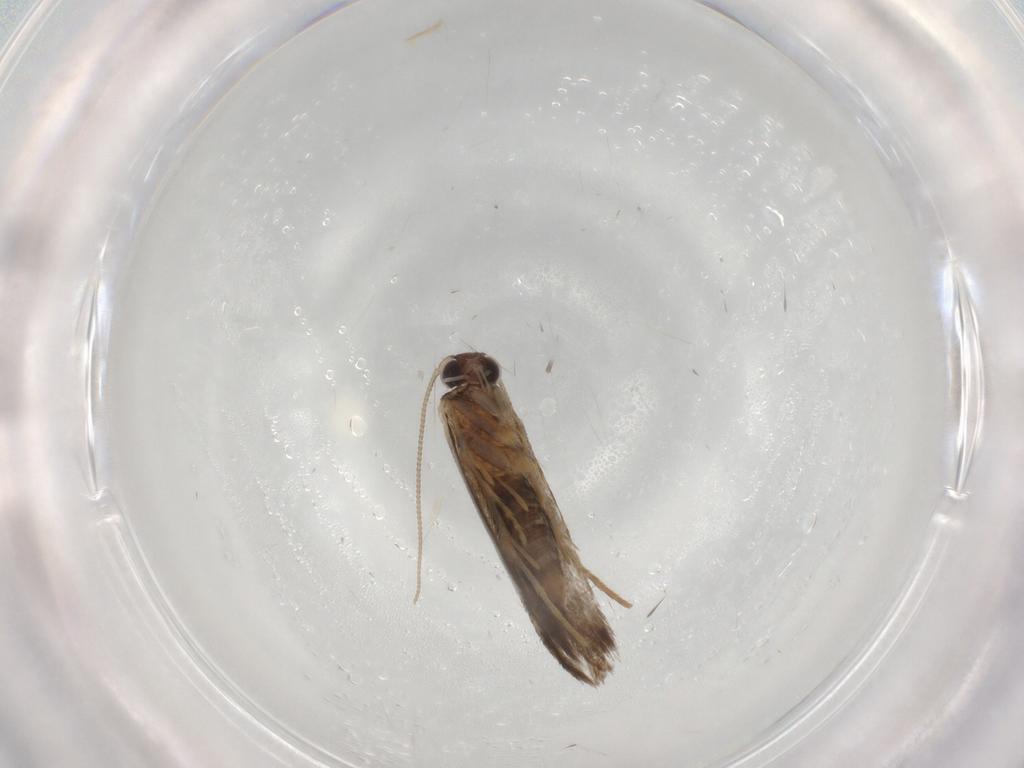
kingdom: Animalia
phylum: Arthropoda
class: Insecta
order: Lepidoptera
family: Tineidae
